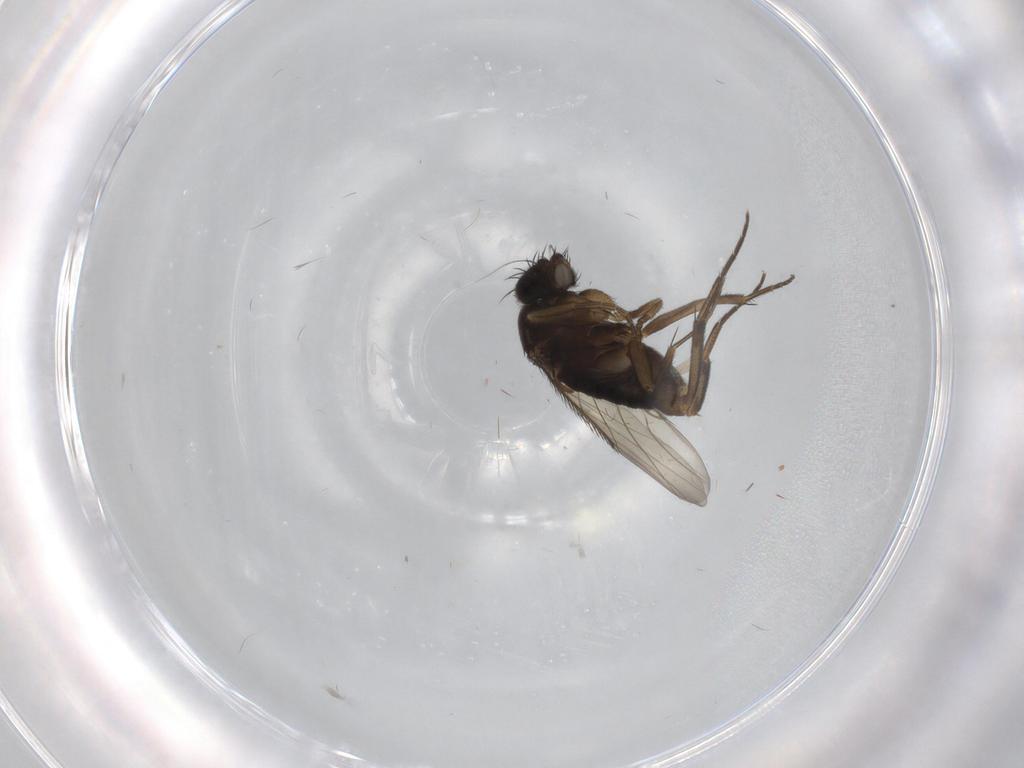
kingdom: Animalia
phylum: Arthropoda
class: Insecta
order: Diptera
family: Phoridae
